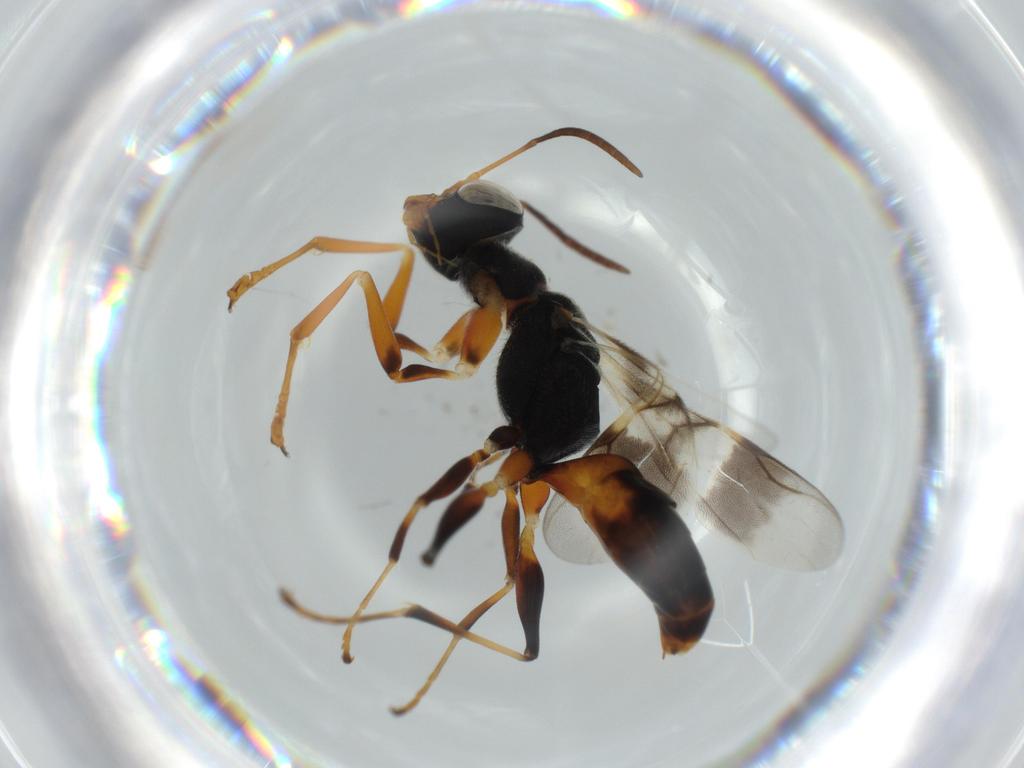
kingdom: Animalia
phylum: Arthropoda
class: Insecta
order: Hymenoptera
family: Dryinidae
